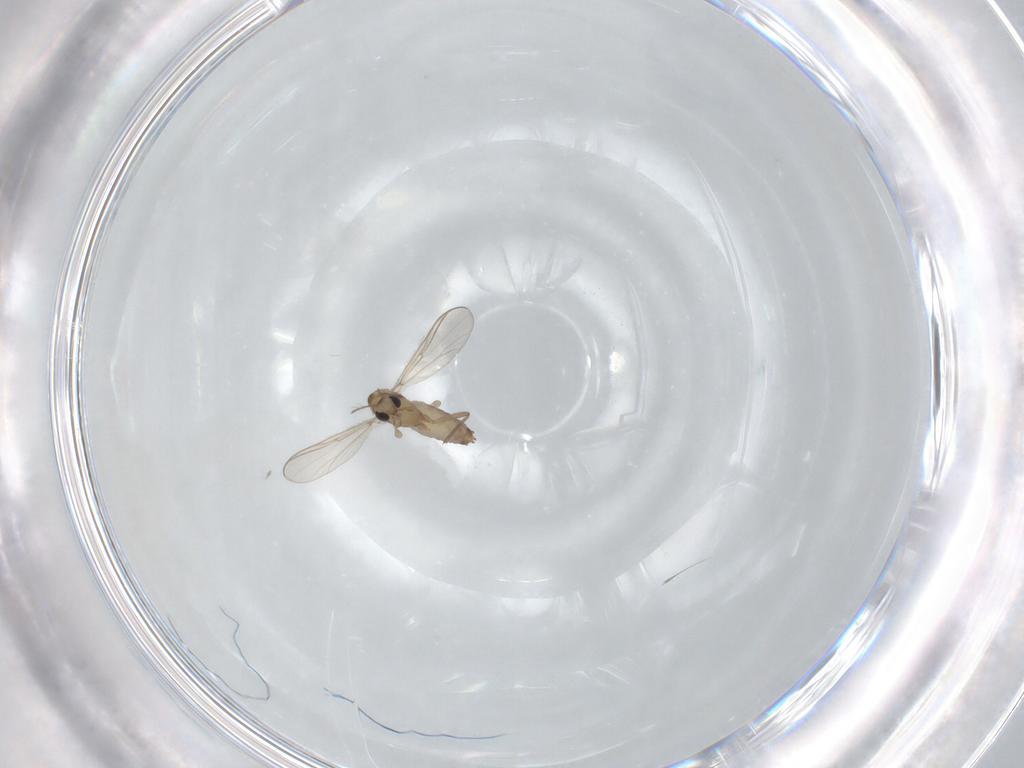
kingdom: Animalia
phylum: Arthropoda
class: Insecta
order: Diptera
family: Chironomidae
